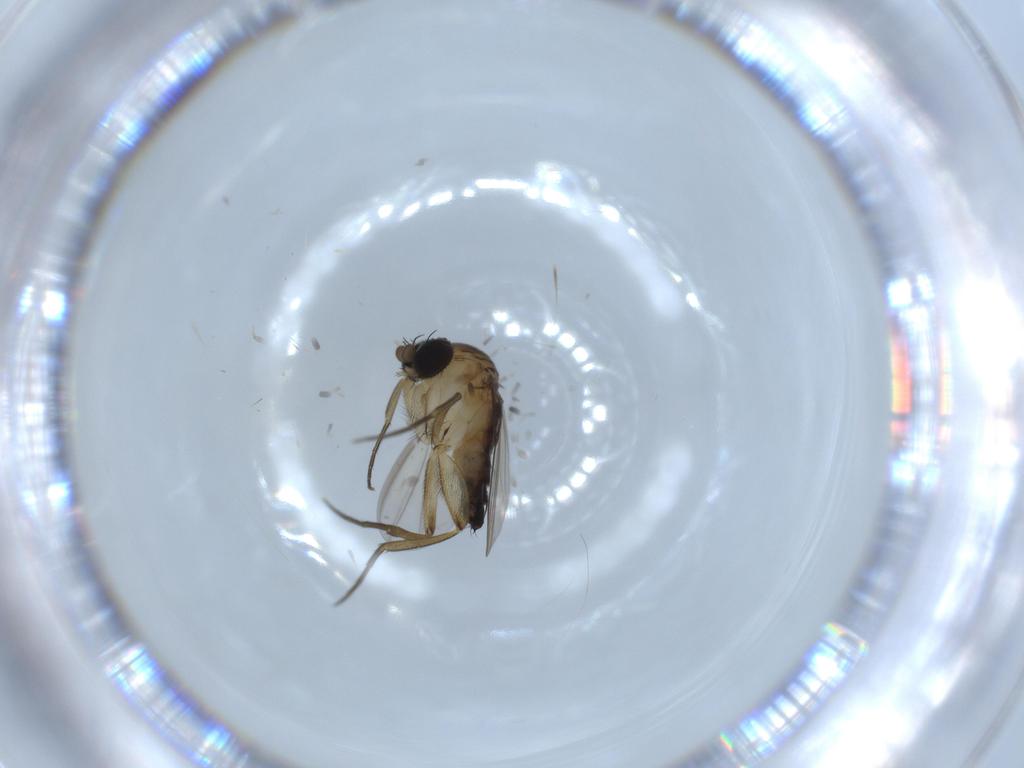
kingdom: Animalia
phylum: Arthropoda
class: Insecta
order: Diptera
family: Phoridae
